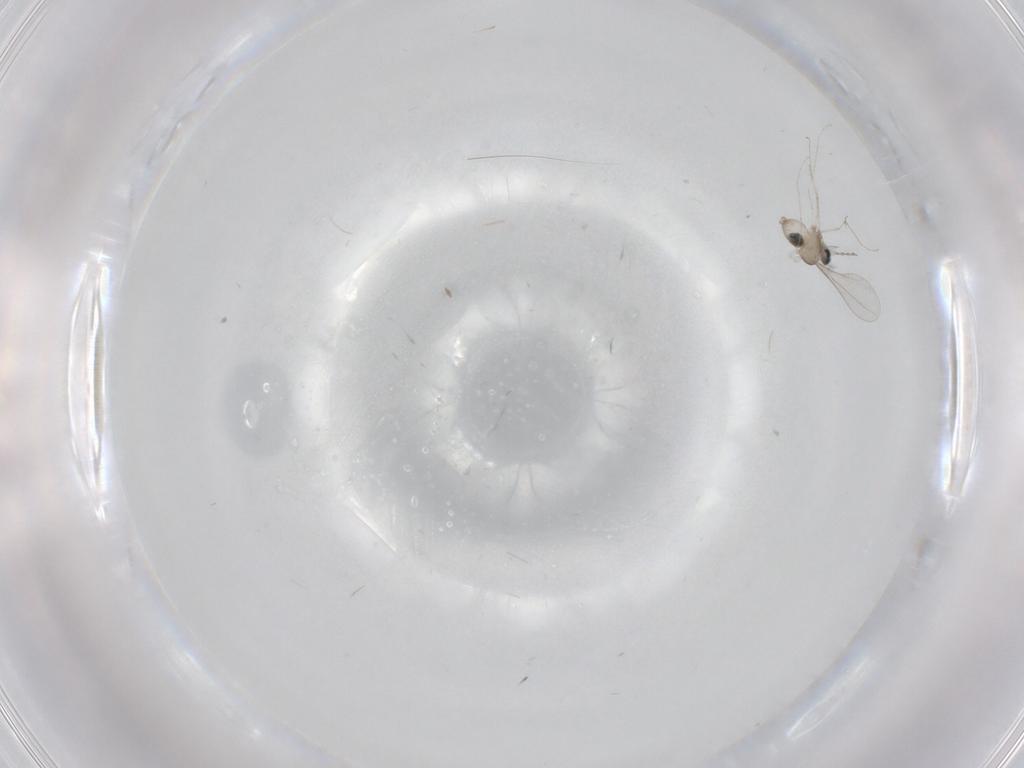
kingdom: Animalia
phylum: Arthropoda
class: Insecta
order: Diptera
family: Cecidomyiidae
